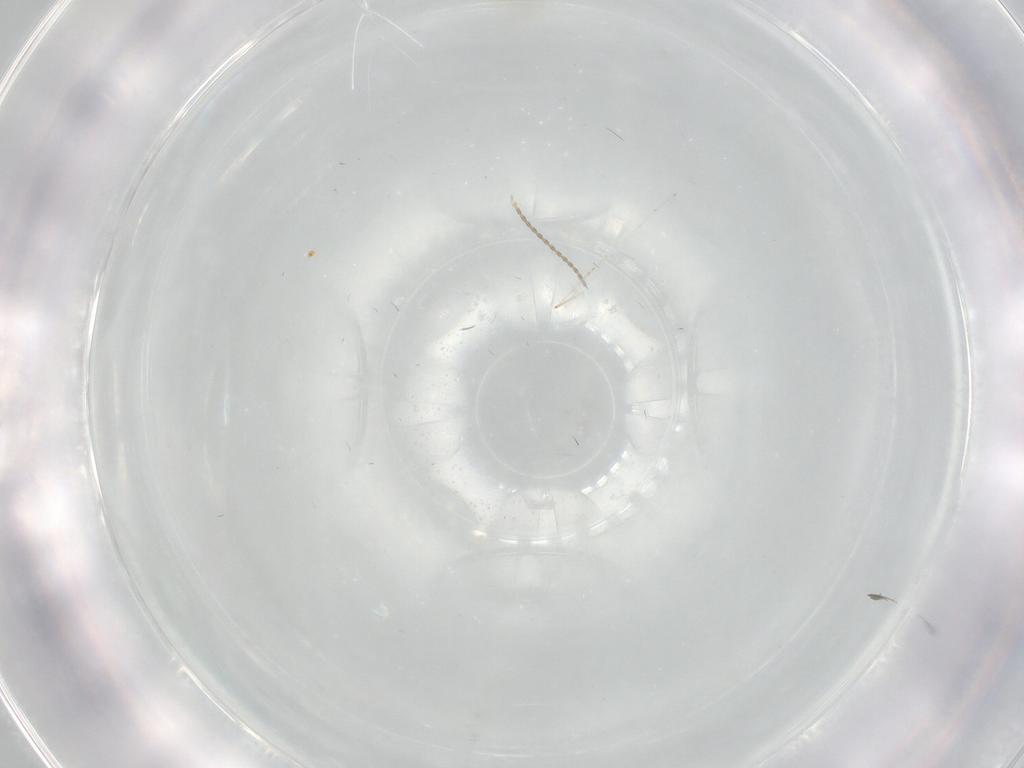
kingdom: Animalia
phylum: Arthropoda
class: Insecta
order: Diptera
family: Chironomidae
